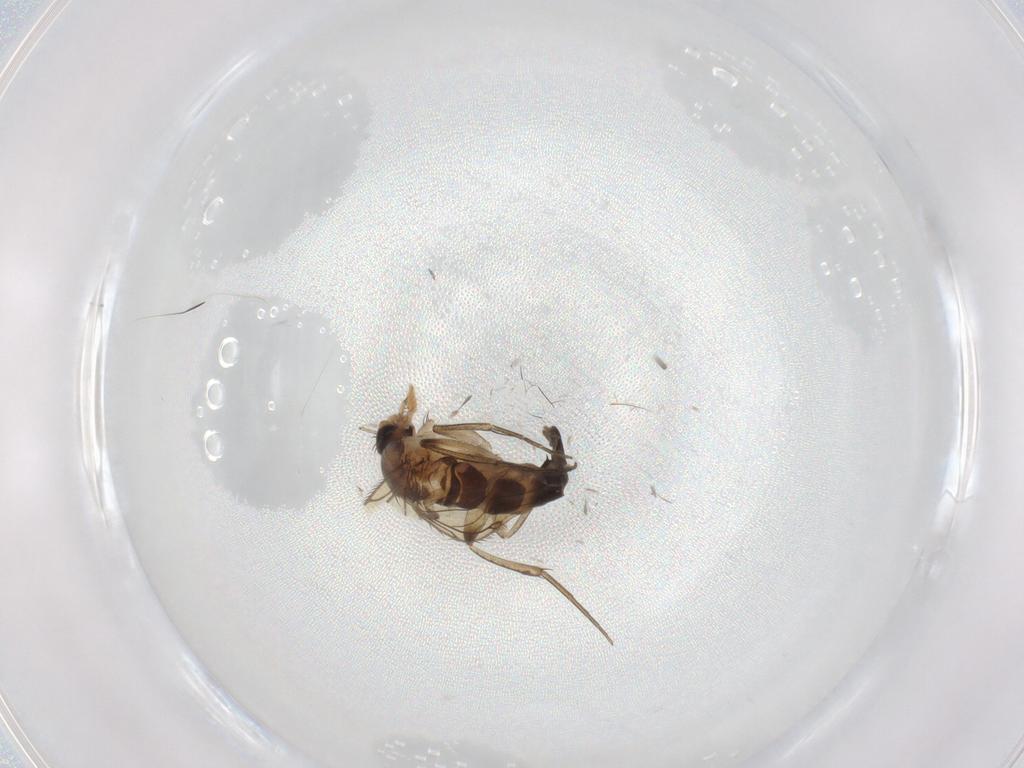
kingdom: Animalia
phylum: Arthropoda
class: Insecta
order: Diptera
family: Phoridae
